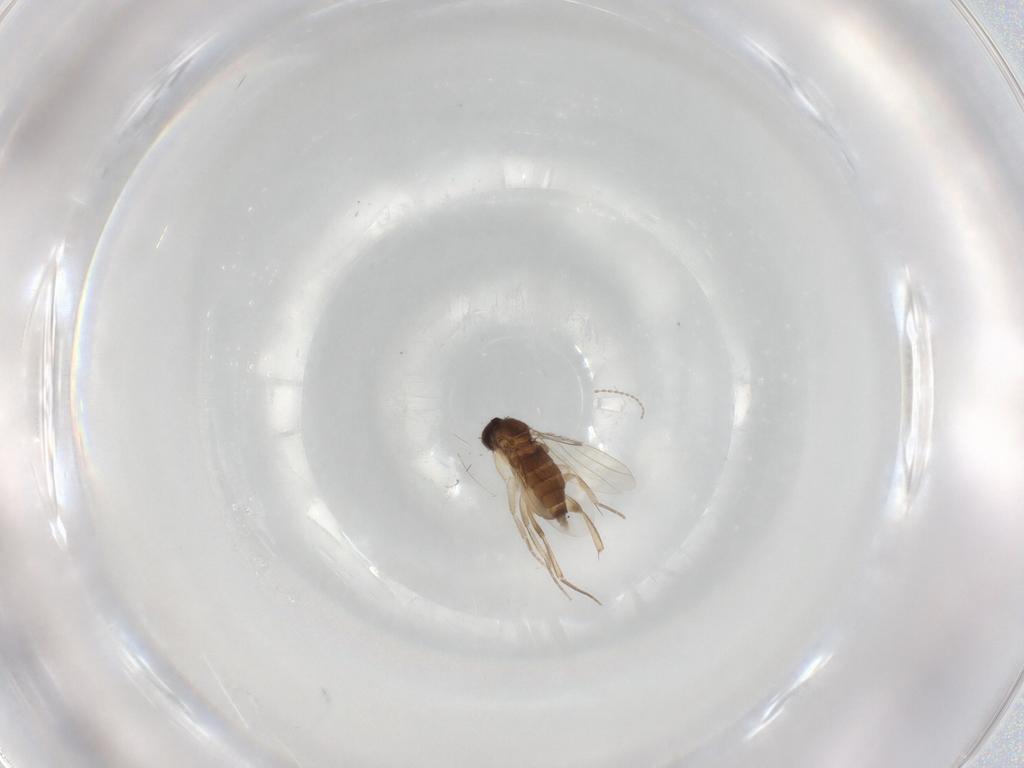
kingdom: Animalia
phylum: Arthropoda
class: Insecta
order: Diptera
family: Phoridae
